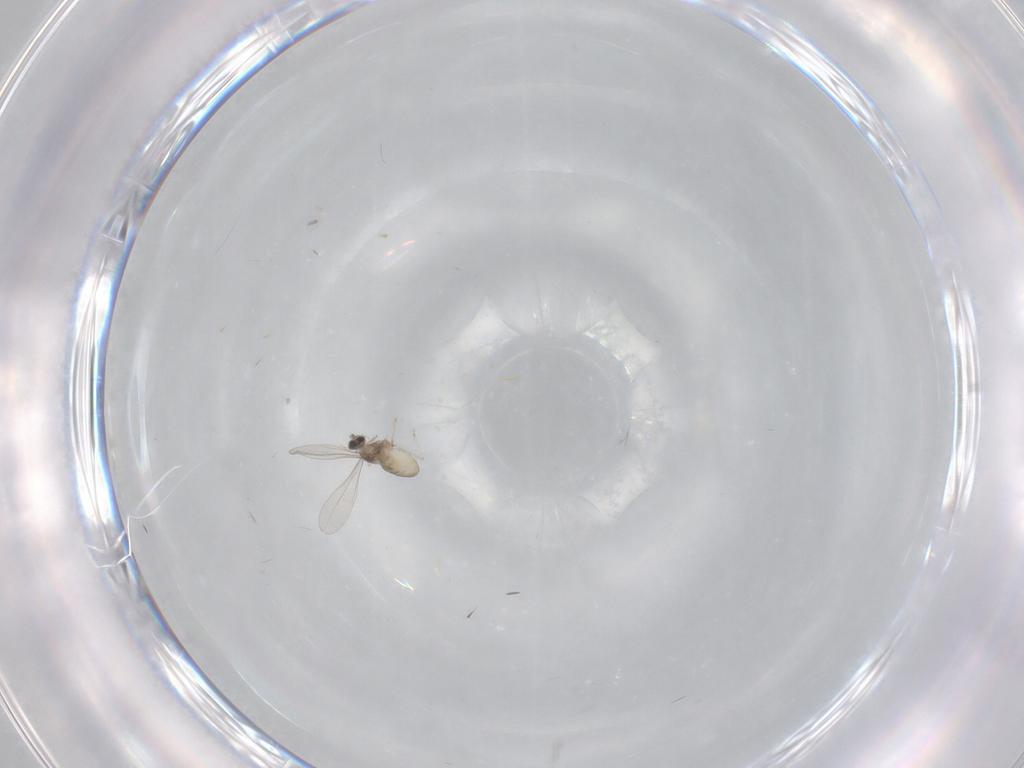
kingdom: Animalia
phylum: Arthropoda
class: Insecta
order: Diptera
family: Cecidomyiidae
